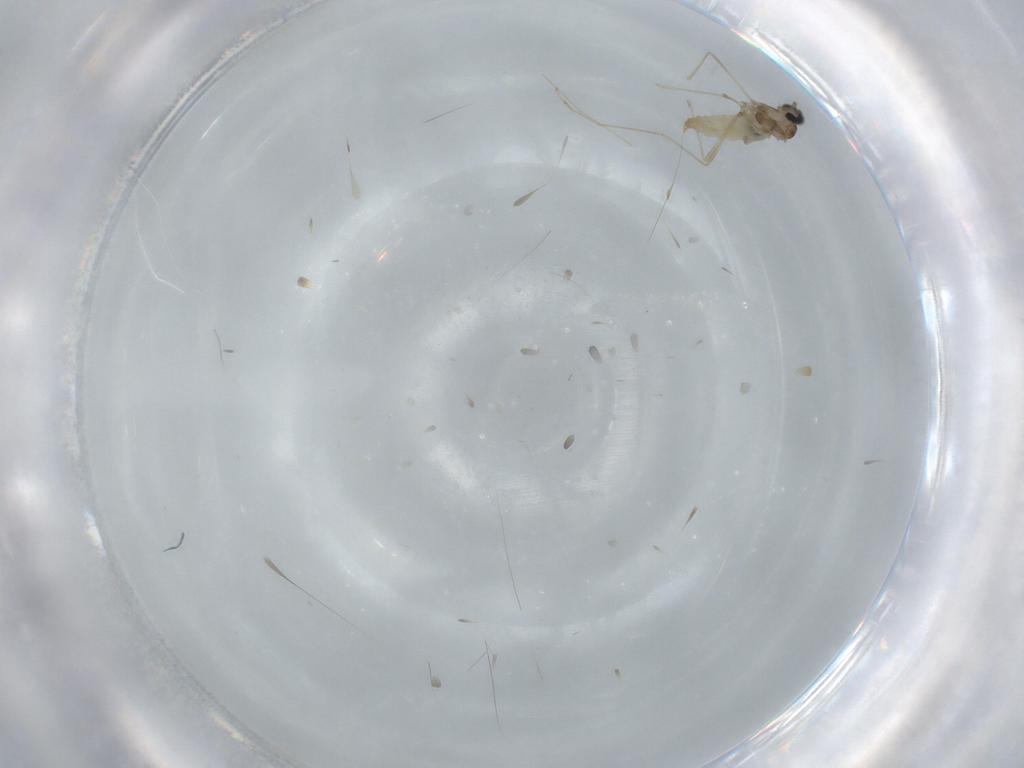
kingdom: Animalia
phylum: Arthropoda
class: Insecta
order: Diptera
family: Cecidomyiidae
